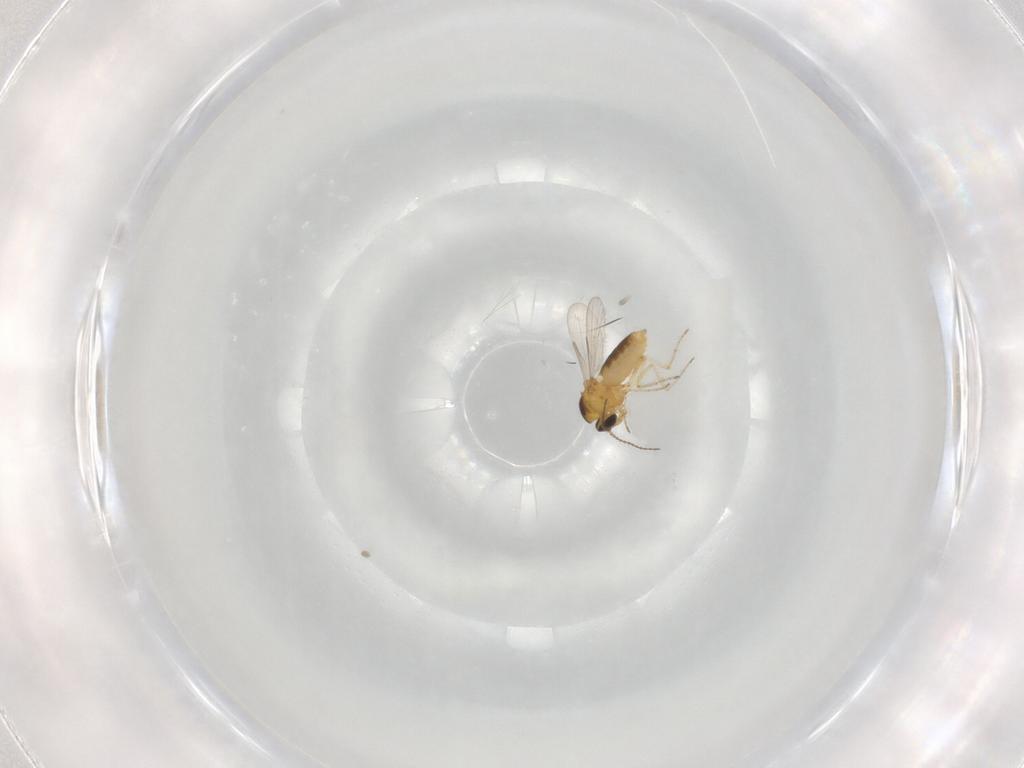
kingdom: Animalia
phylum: Arthropoda
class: Insecta
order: Diptera
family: Ceratopogonidae
